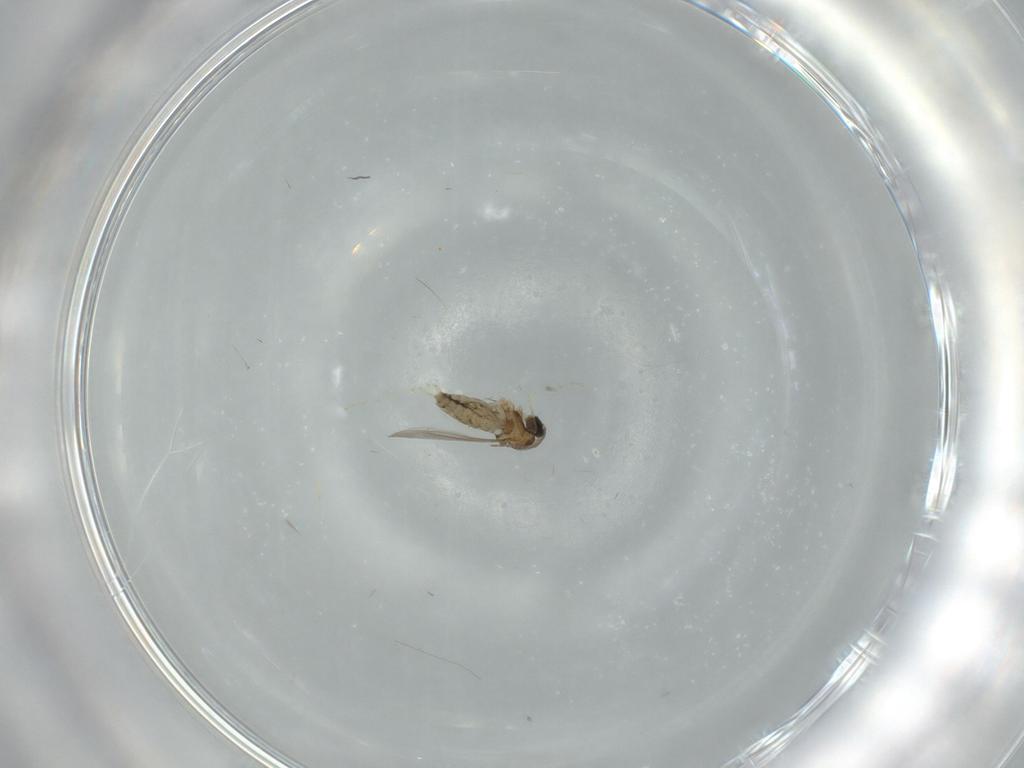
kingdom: Animalia
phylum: Arthropoda
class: Insecta
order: Diptera
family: Cecidomyiidae
